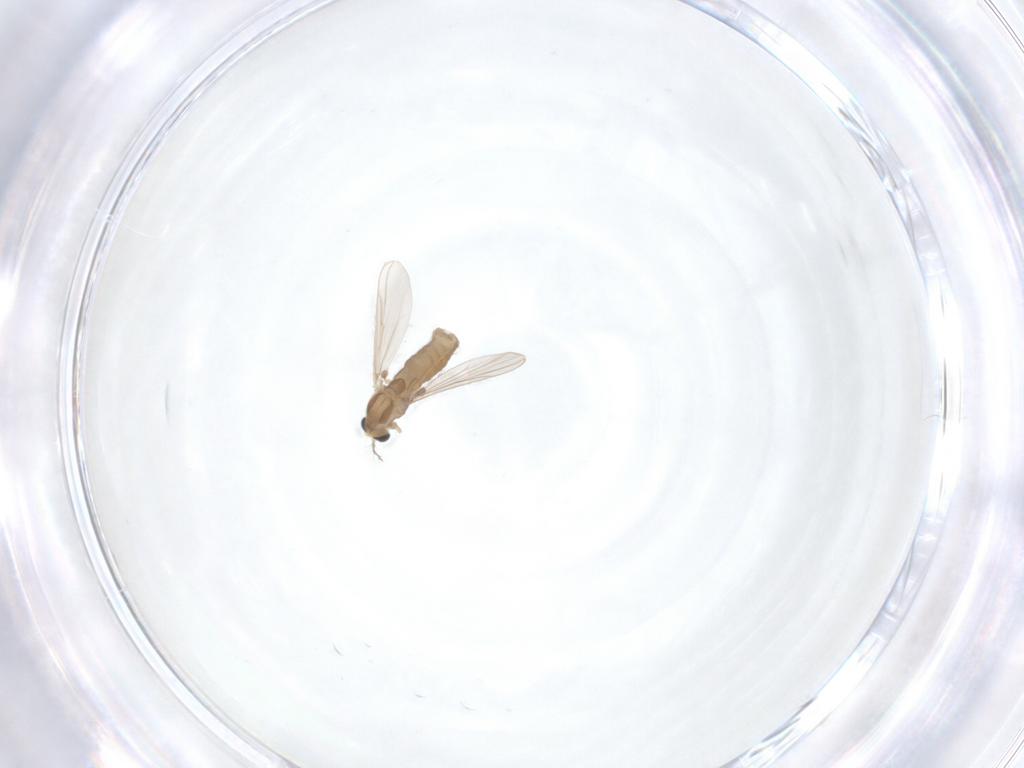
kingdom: Animalia
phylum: Arthropoda
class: Insecta
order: Diptera
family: Chironomidae
